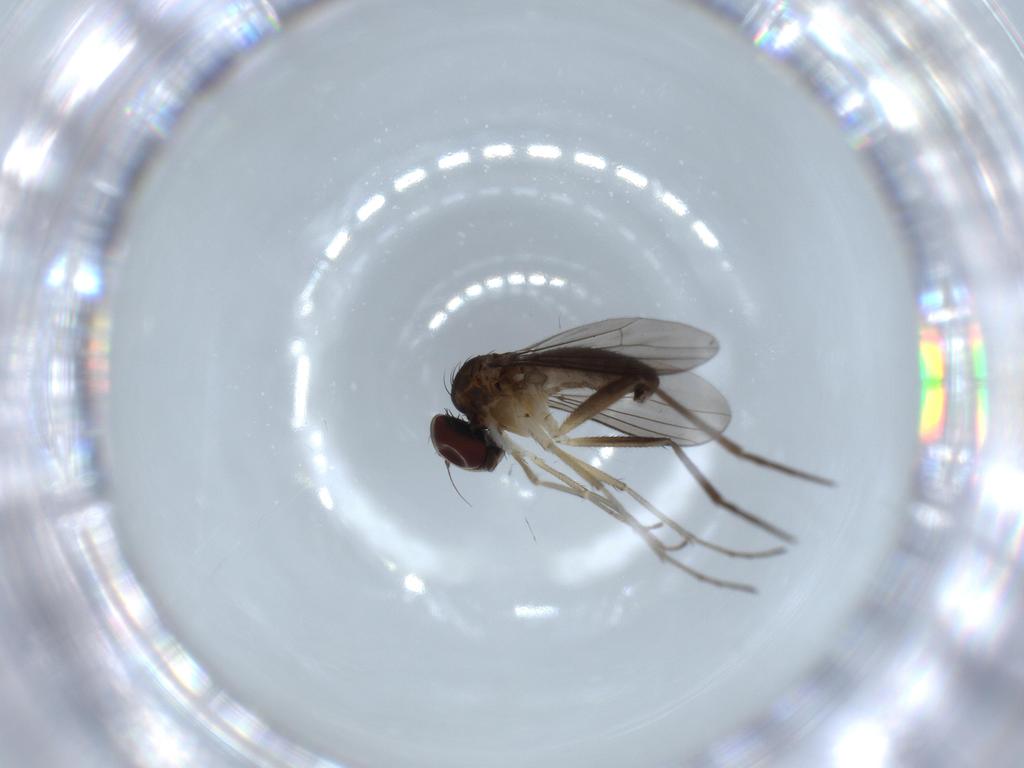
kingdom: Animalia
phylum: Arthropoda
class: Insecta
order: Diptera
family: Dolichopodidae
